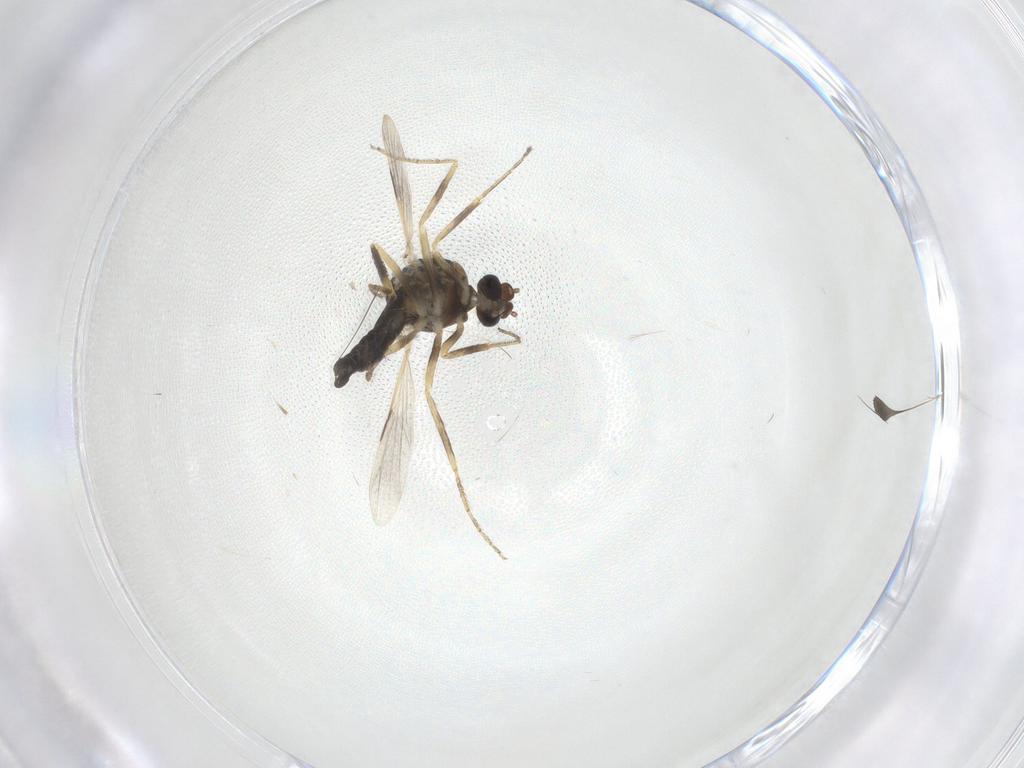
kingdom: Animalia
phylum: Arthropoda
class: Insecta
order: Diptera
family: Ceratopogonidae
